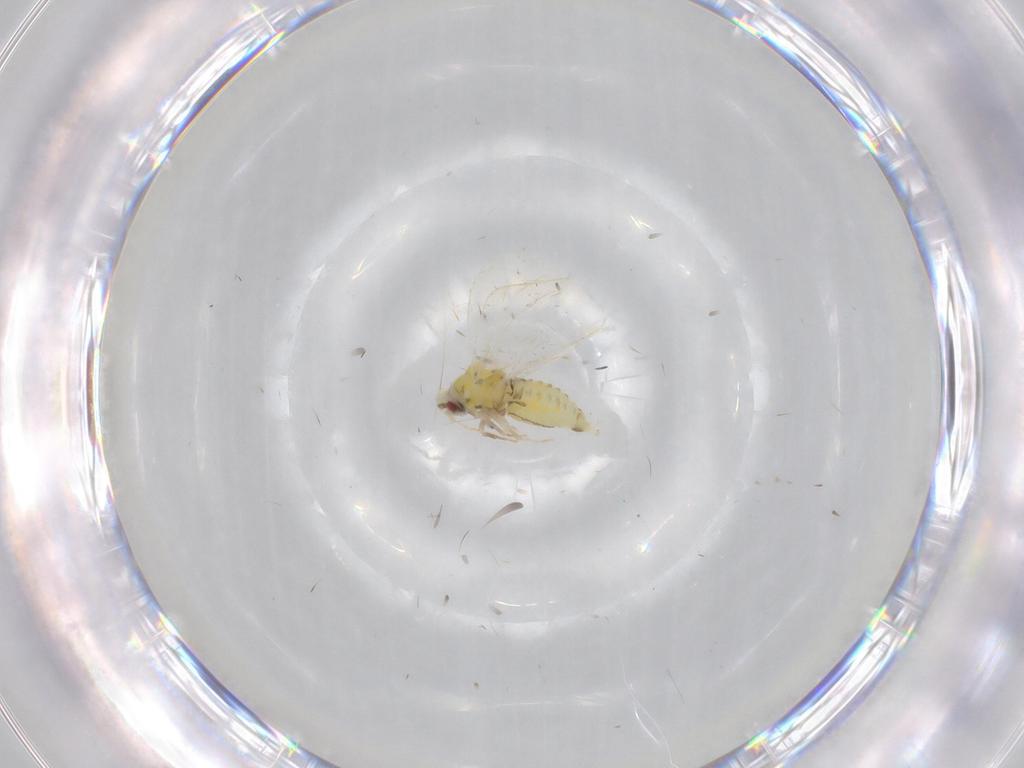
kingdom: Animalia
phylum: Arthropoda
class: Insecta
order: Hemiptera
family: Aleyrodidae
